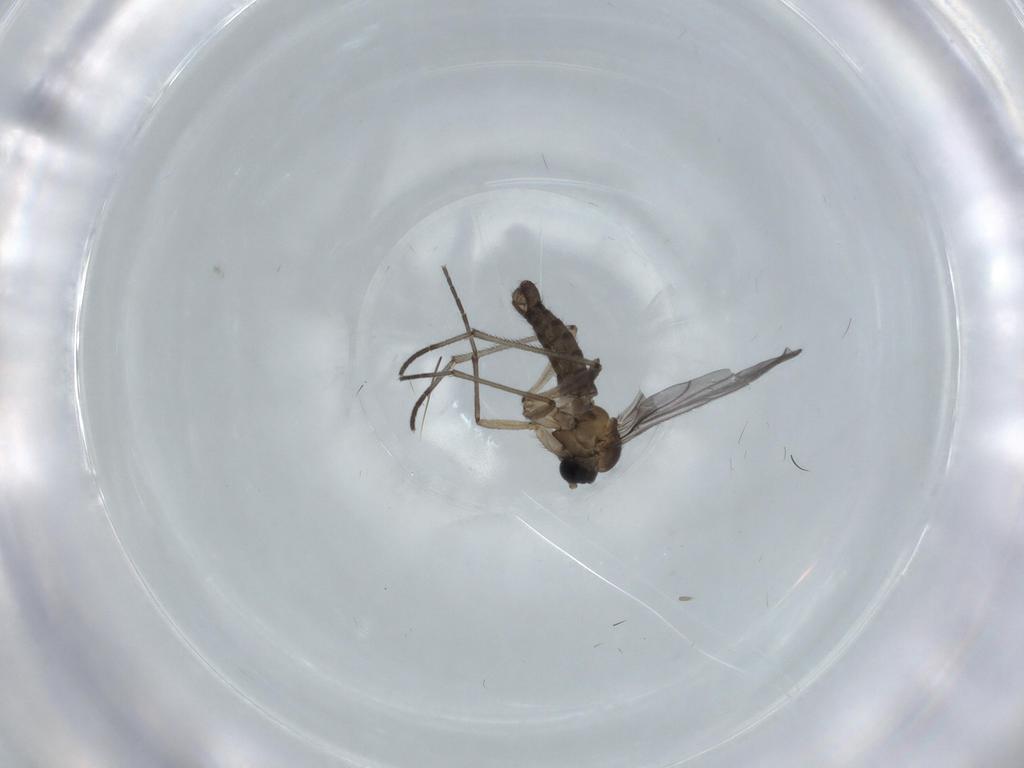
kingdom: Animalia
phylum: Arthropoda
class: Insecta
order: Diptera
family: Sciaridae
